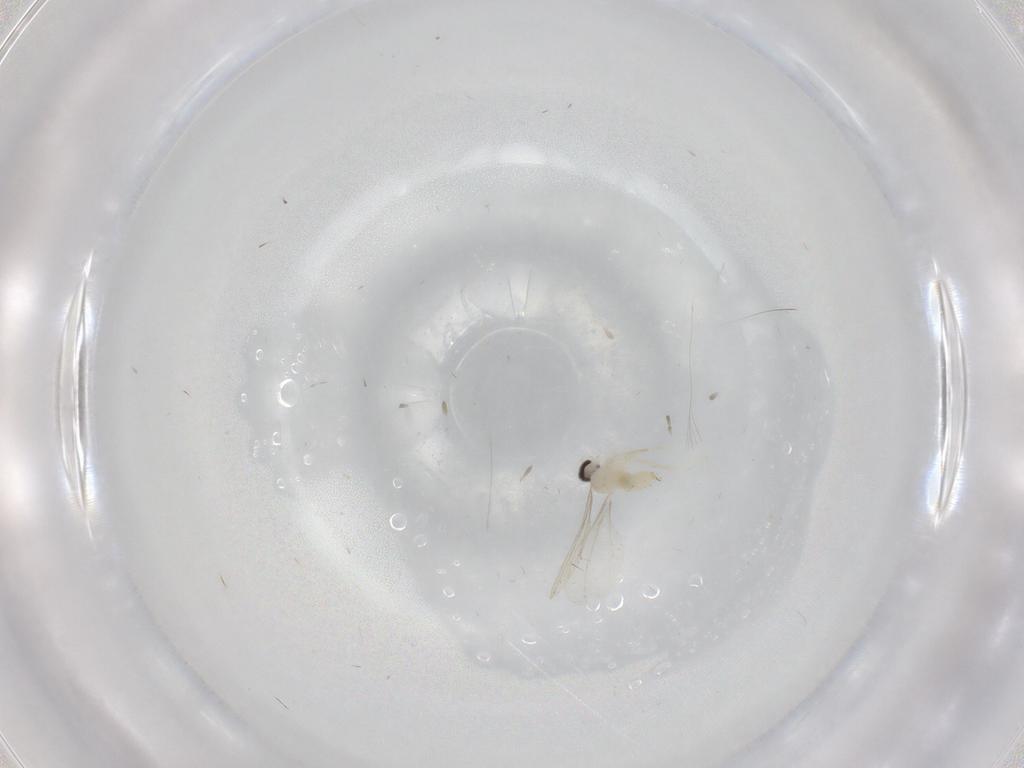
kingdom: Animalia
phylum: Arthropoda
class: Insecta
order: Diptera
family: Cecidomyiidae
